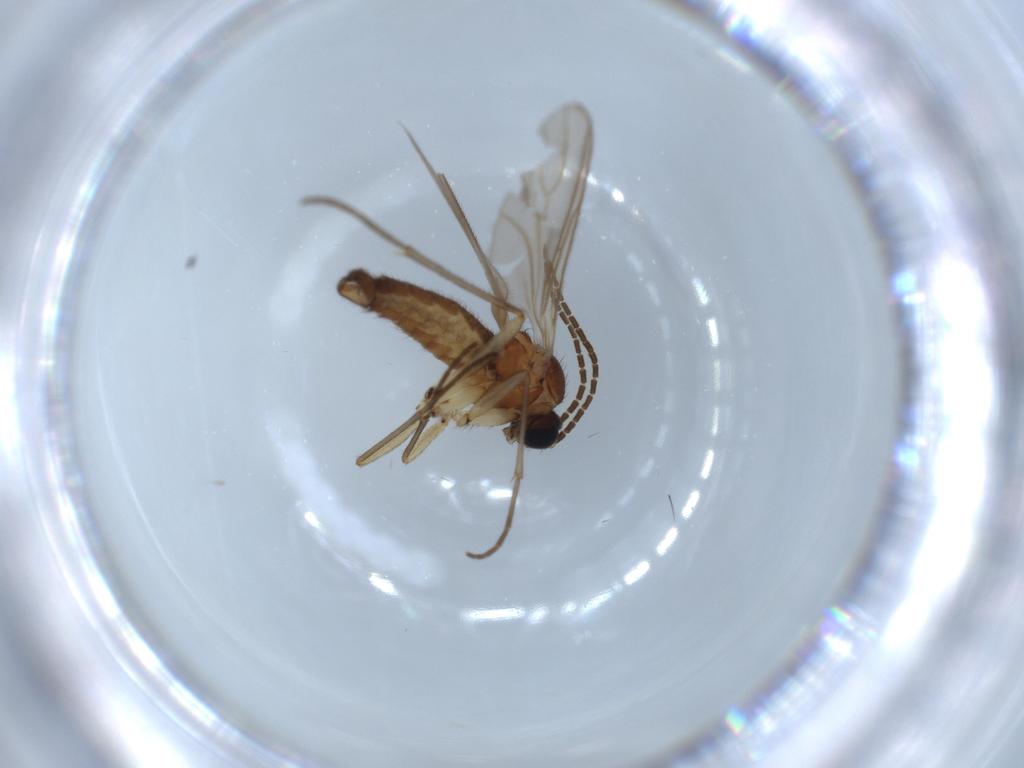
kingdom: Animalia
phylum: Arthropoda
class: Insecta
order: Diptera
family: Sciaridae
